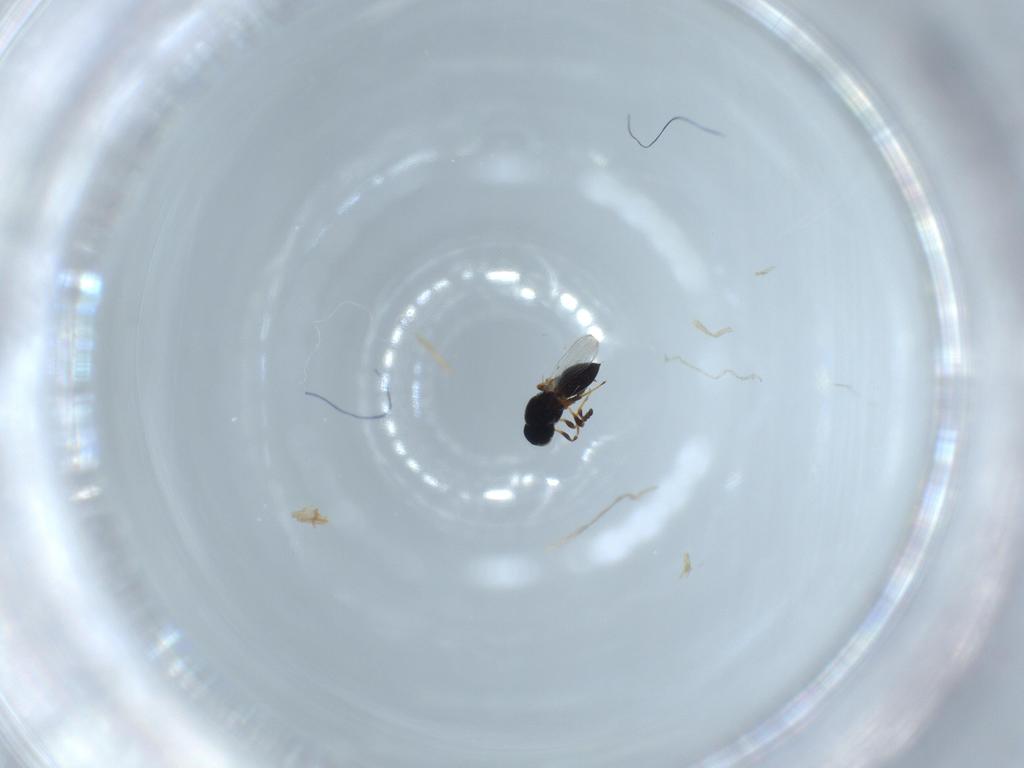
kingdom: Animalia
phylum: Arthropoda
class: Insecta
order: Hymenoptera
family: Platygastridae
